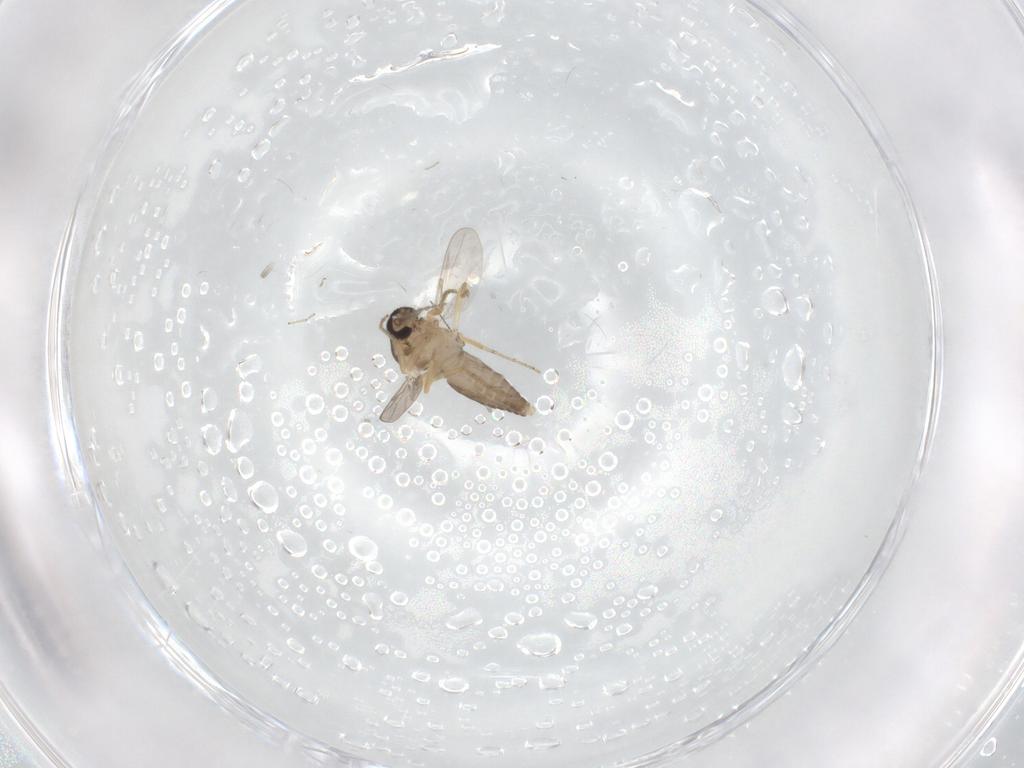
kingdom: Animalia
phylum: Arthropoda
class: Insecta
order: Diptera
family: Ceratopogonidae
